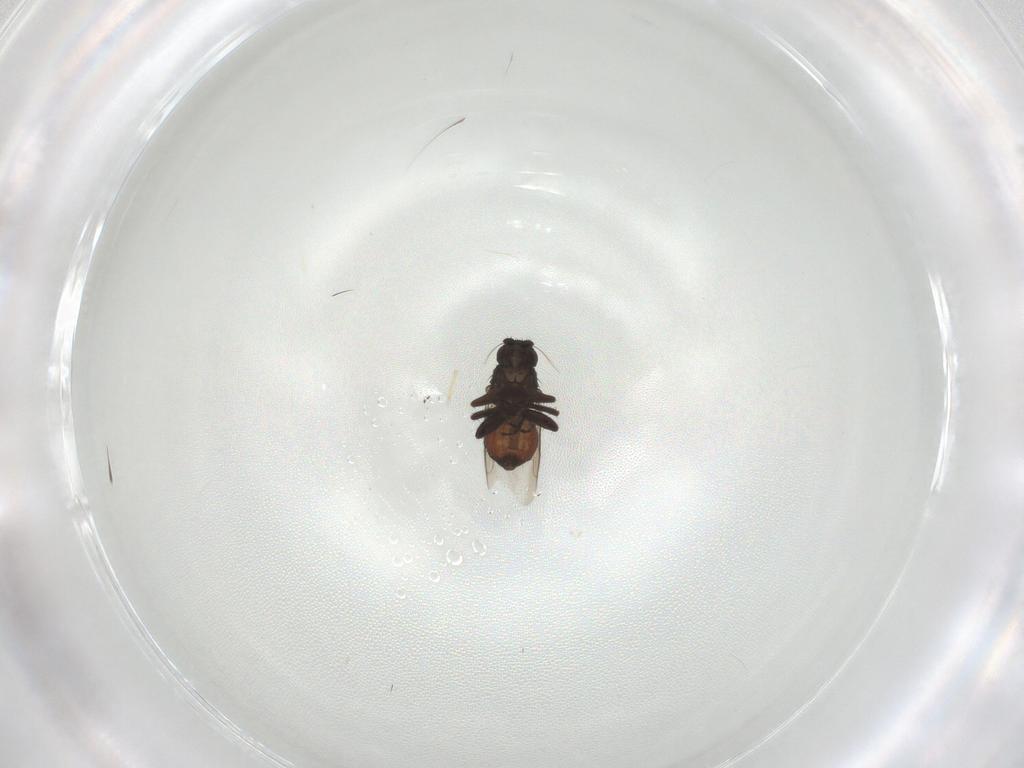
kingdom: Animalia
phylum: Arthropoda
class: Insecta
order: Diptera
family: Sphaeroceridae
